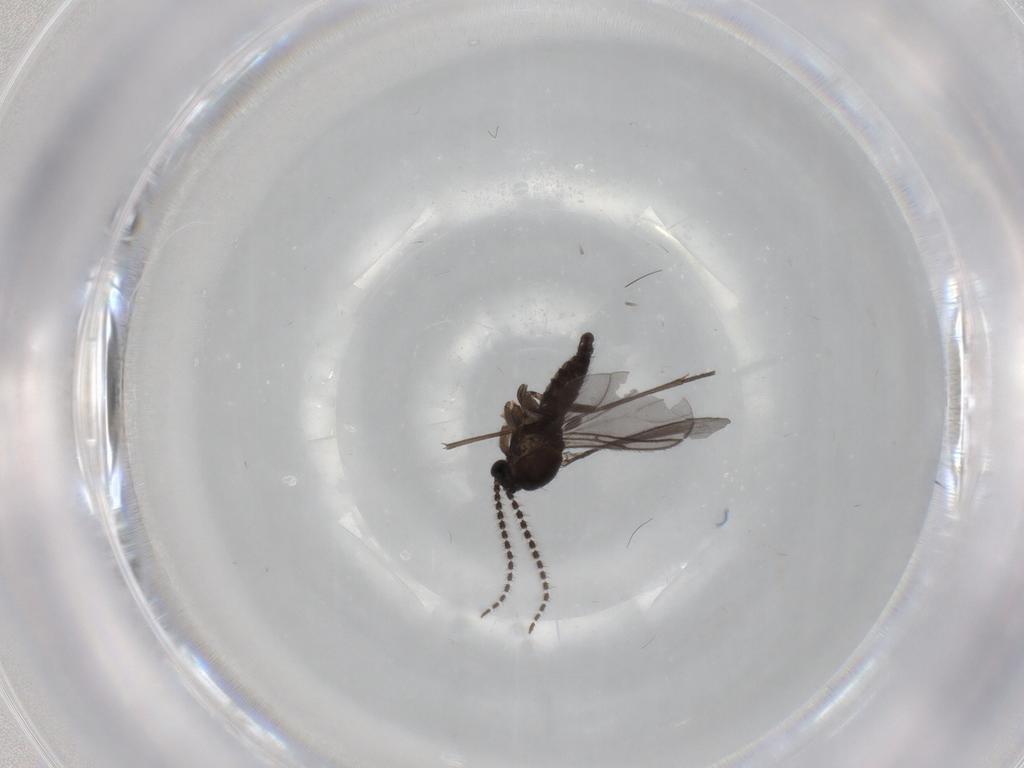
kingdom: Animalia
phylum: Arthropoda
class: Insecta
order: Diptera
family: Sciaridae
